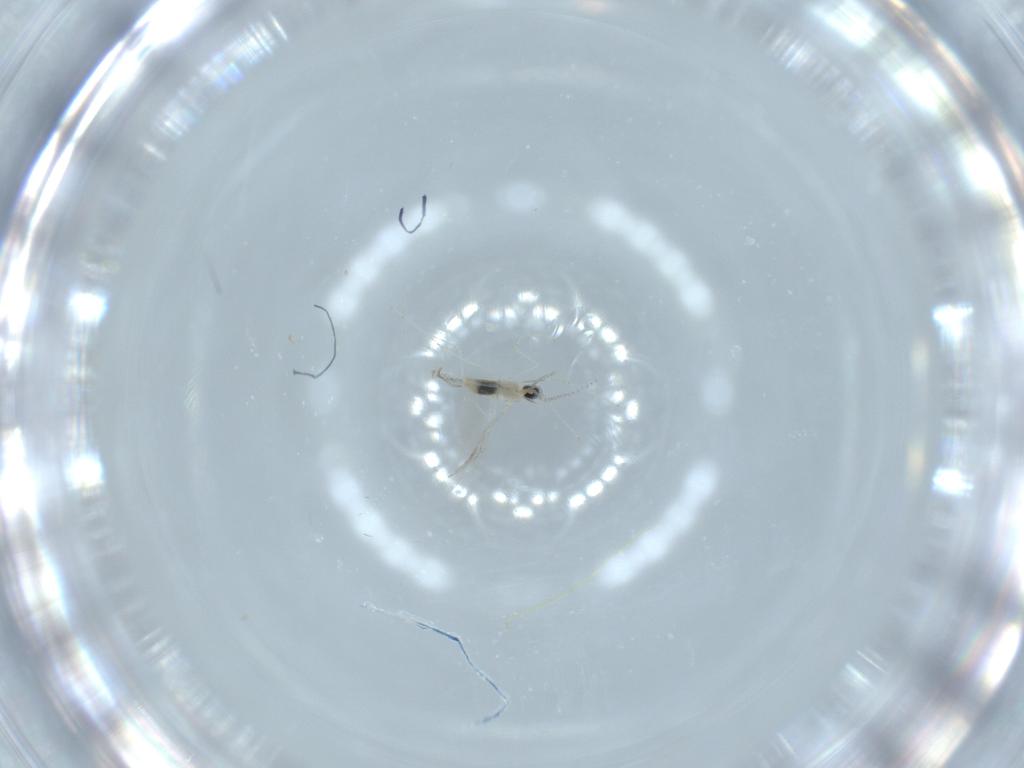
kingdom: Animalia
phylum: Arthropoda
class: Insecta
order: Diptera
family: Cecidomyiidae
